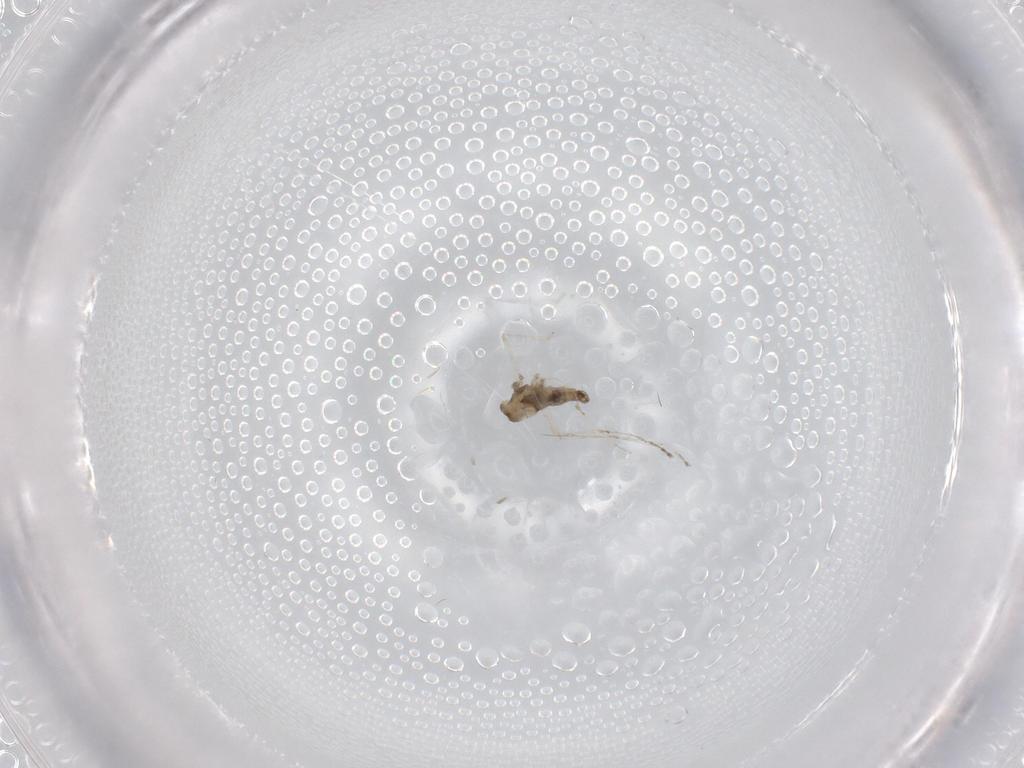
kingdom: Animalia
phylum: Arthropoda
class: Insecta
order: Diptera
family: Cecidomyiidae
